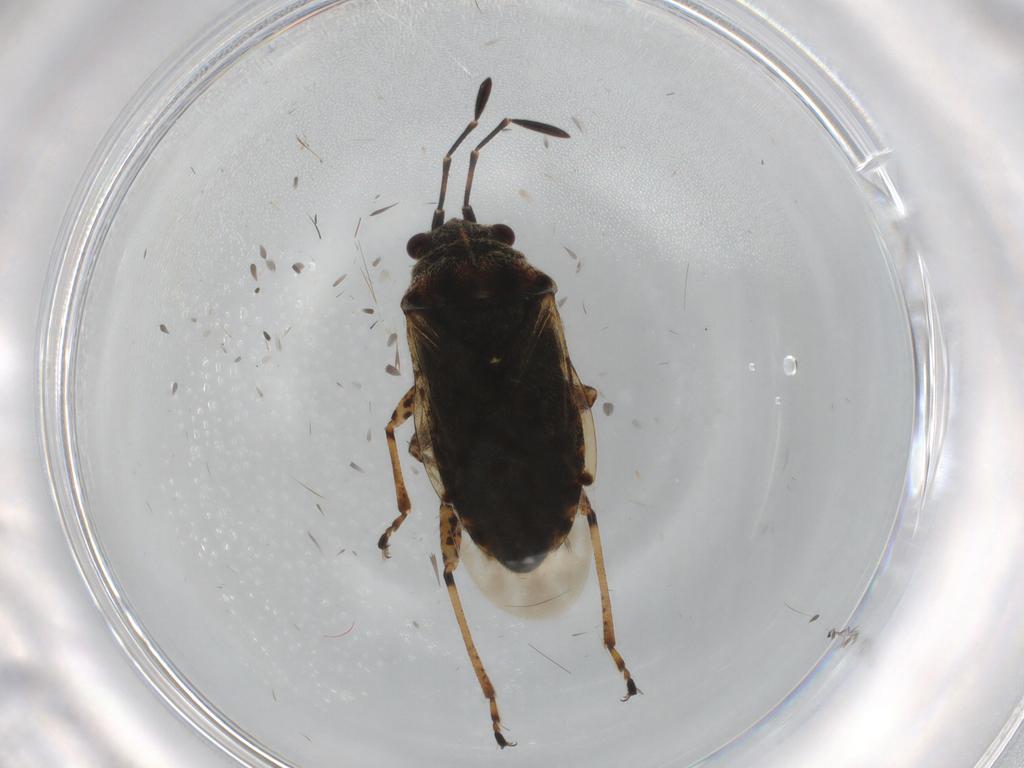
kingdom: Animalia
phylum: Arthropoda
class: Insecta
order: Hemiptera
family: Lygaeidae
